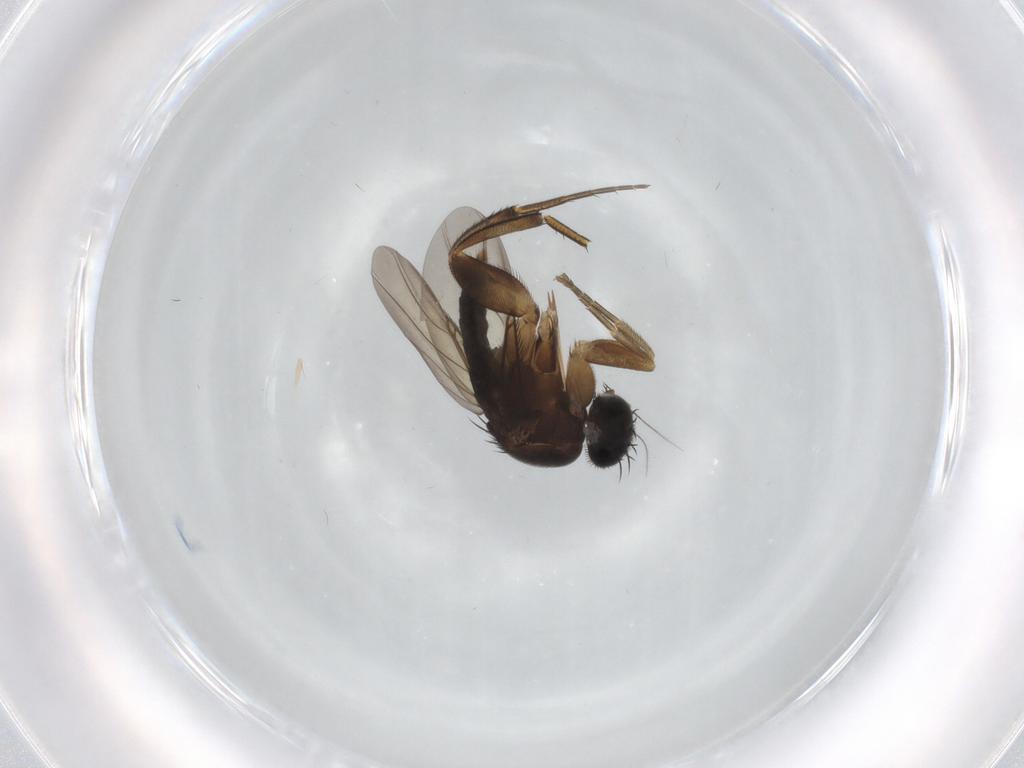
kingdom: Animalia
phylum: Arthropoda
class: Insecta
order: Diptera
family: Phoridae
